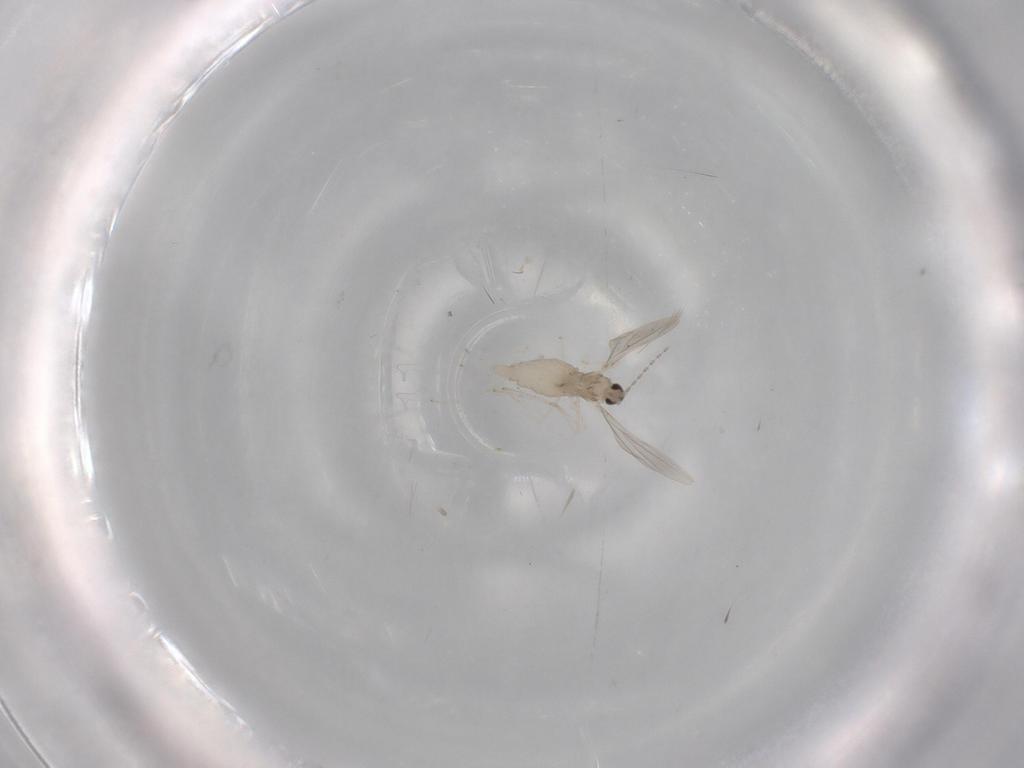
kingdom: Animalia
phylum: Arthropoda
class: Insecta
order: Diptera
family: Cecidomyiidae
